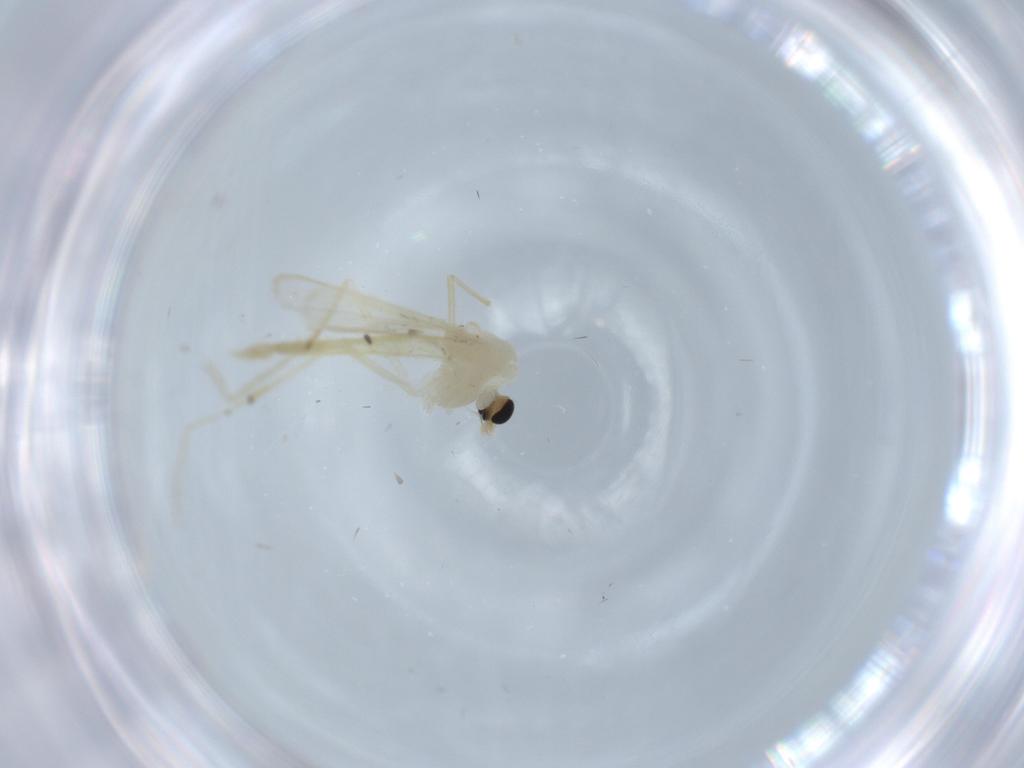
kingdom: Animalia
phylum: Arthropoda
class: Insecta
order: Diptera
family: Chironomidae
